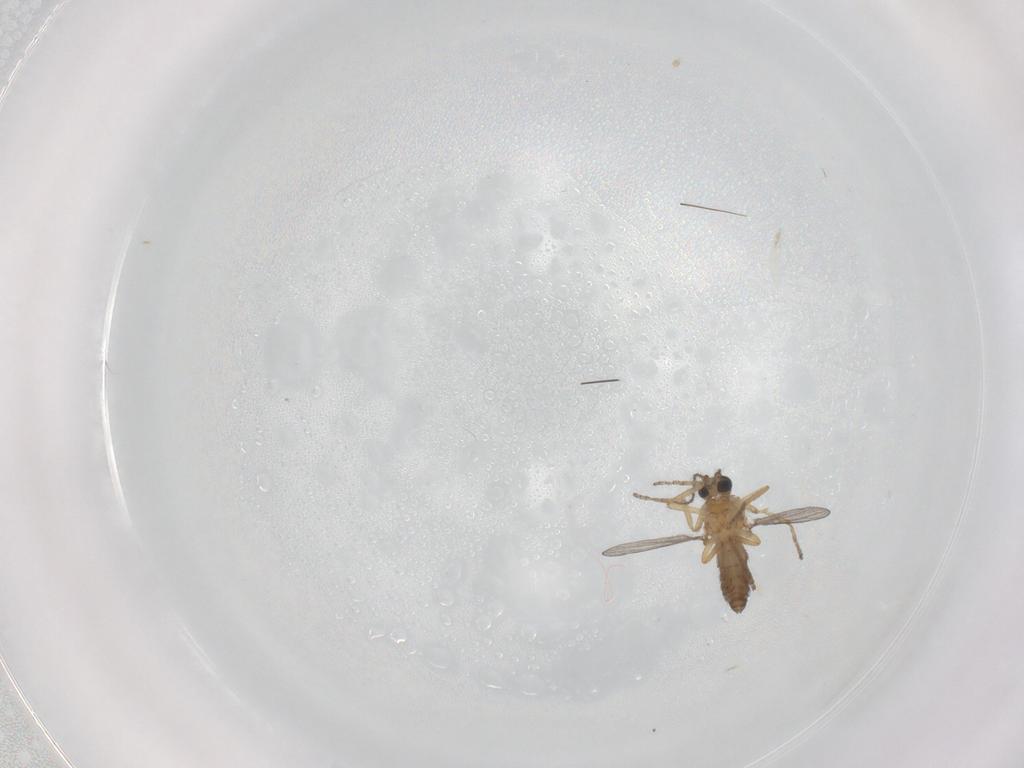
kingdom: Animalia
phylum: Arthropoda
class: Insecta
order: Diptera
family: Ceratopogonidae
